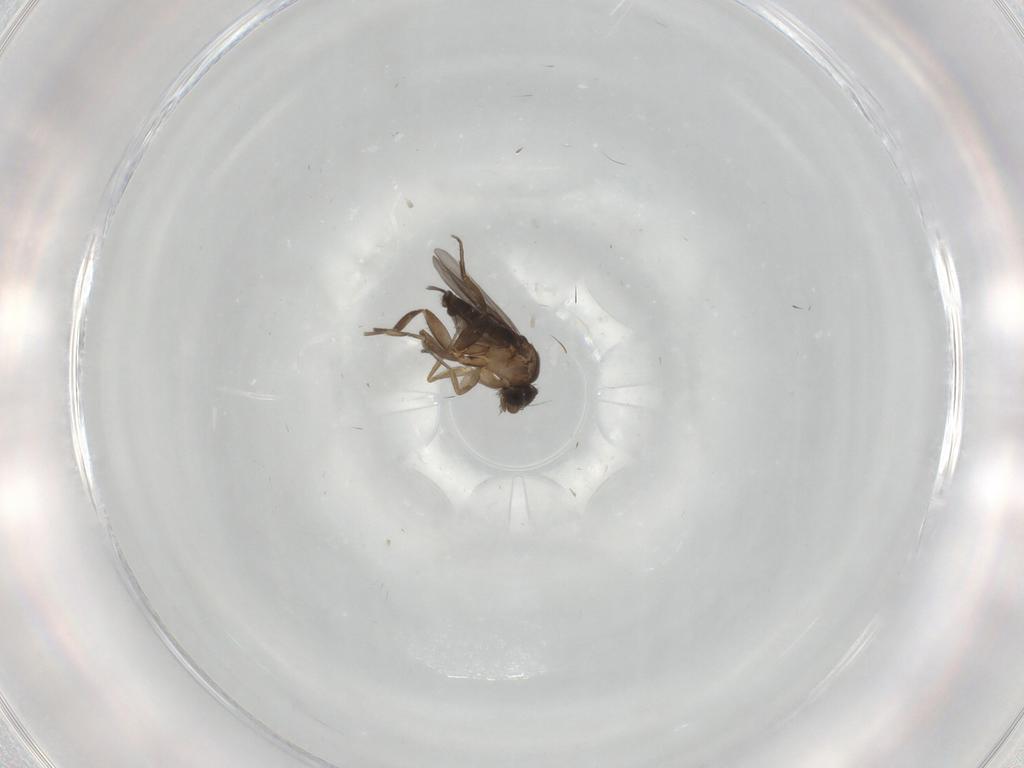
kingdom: Animalia
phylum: Arthropoda
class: Insecta
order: Diptera
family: Phoridae
